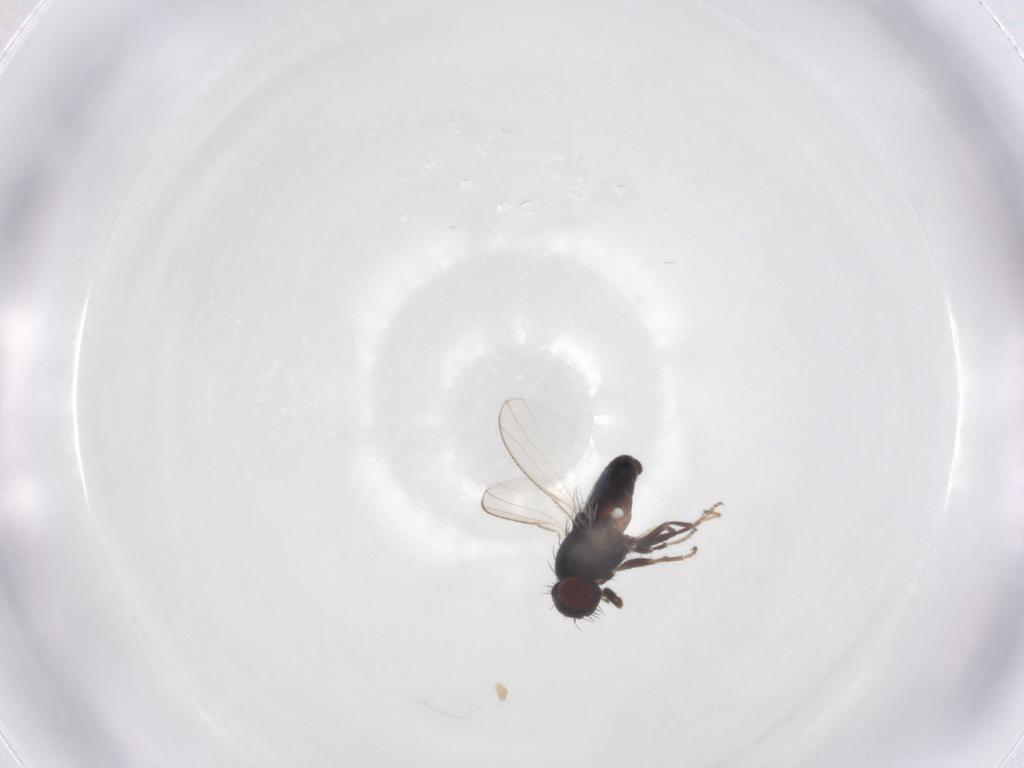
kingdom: Animalia
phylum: Arthropoda
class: Insecta
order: Diptera
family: Carnidae
